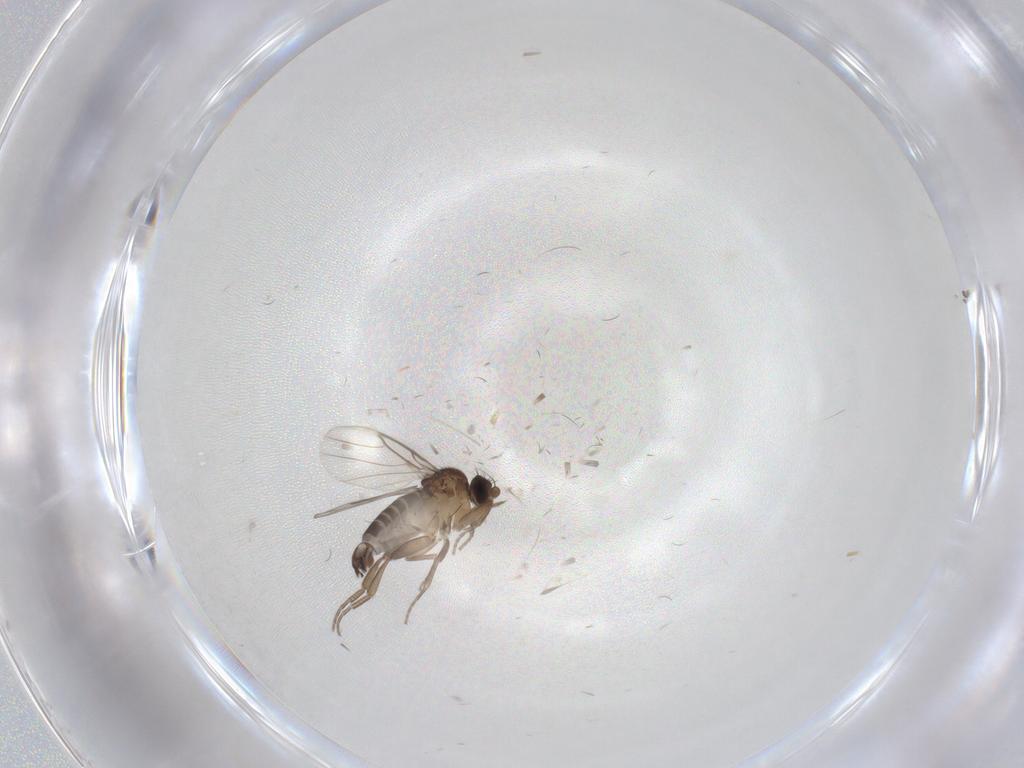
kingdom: Animalia
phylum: Arthropoda
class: Insecta
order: Diptera
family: Phoridae
